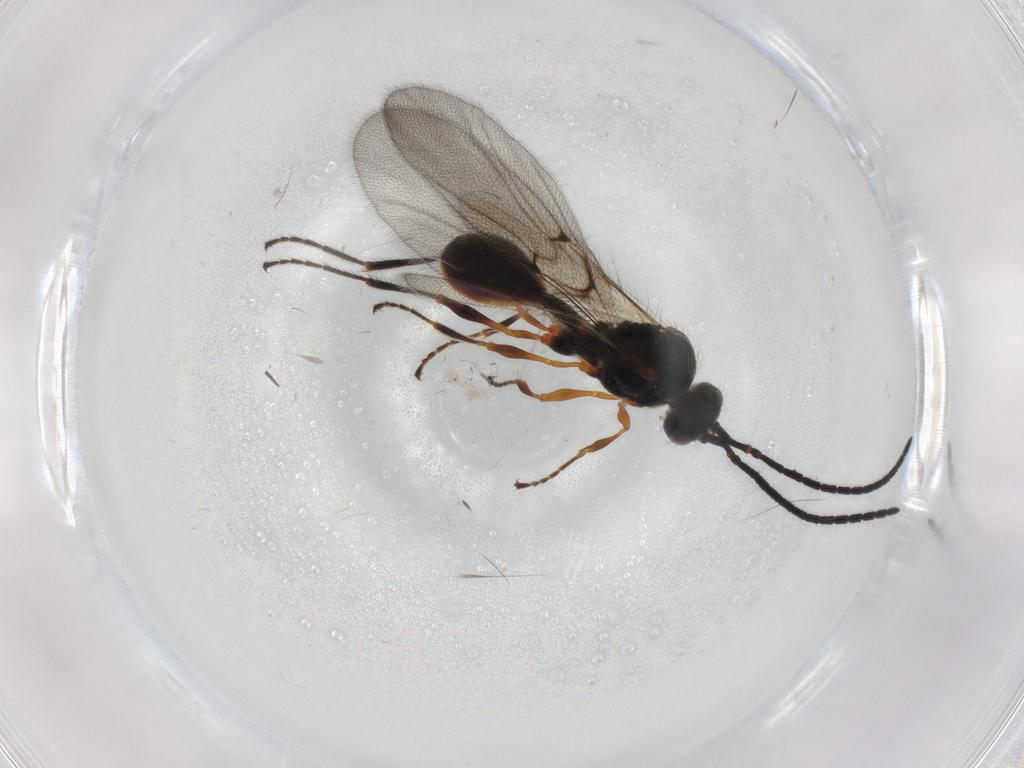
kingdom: Animalia
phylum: Arthropoda
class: Insecta
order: Hymenoptera
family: Diapriidae
